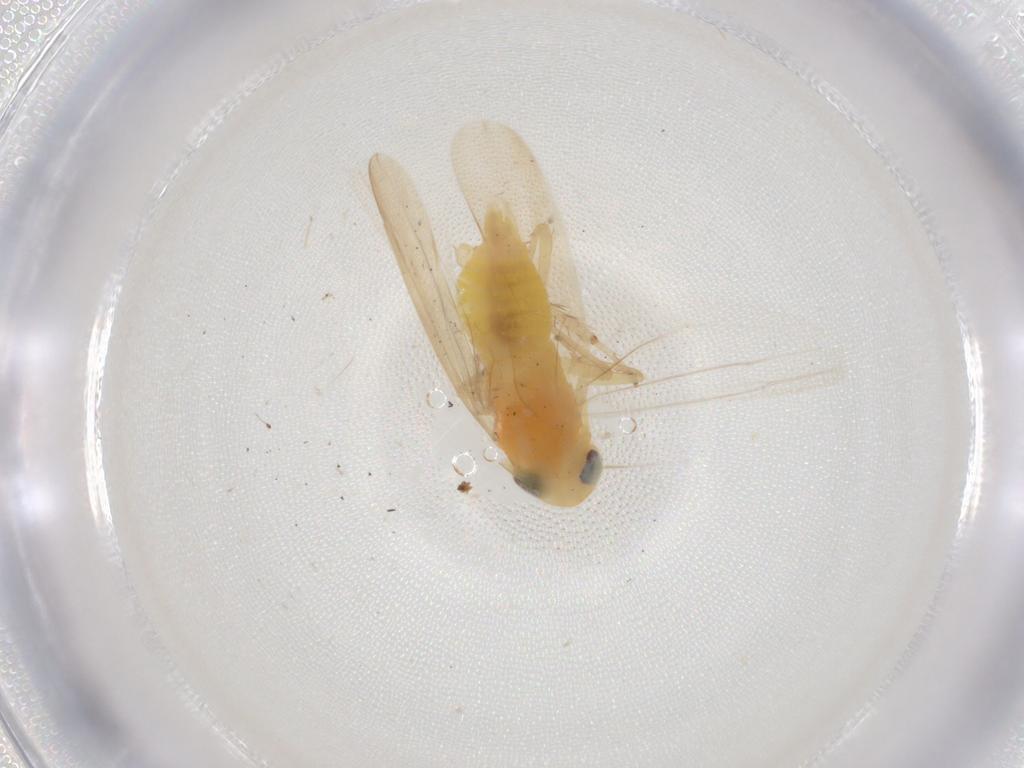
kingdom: Animalia
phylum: Arthropoda
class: Insecta
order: Hemiptera
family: Cicadellidae
